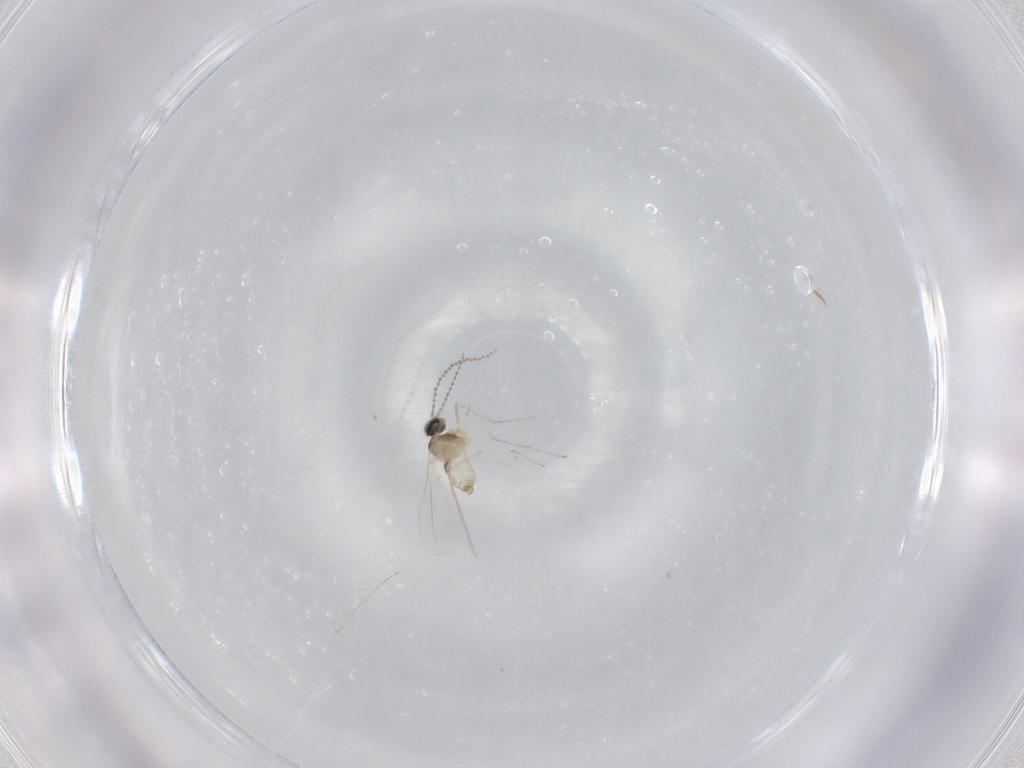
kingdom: Animalia
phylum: Arthropoda
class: Insecta
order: Diptera
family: Cecidomyiidae
